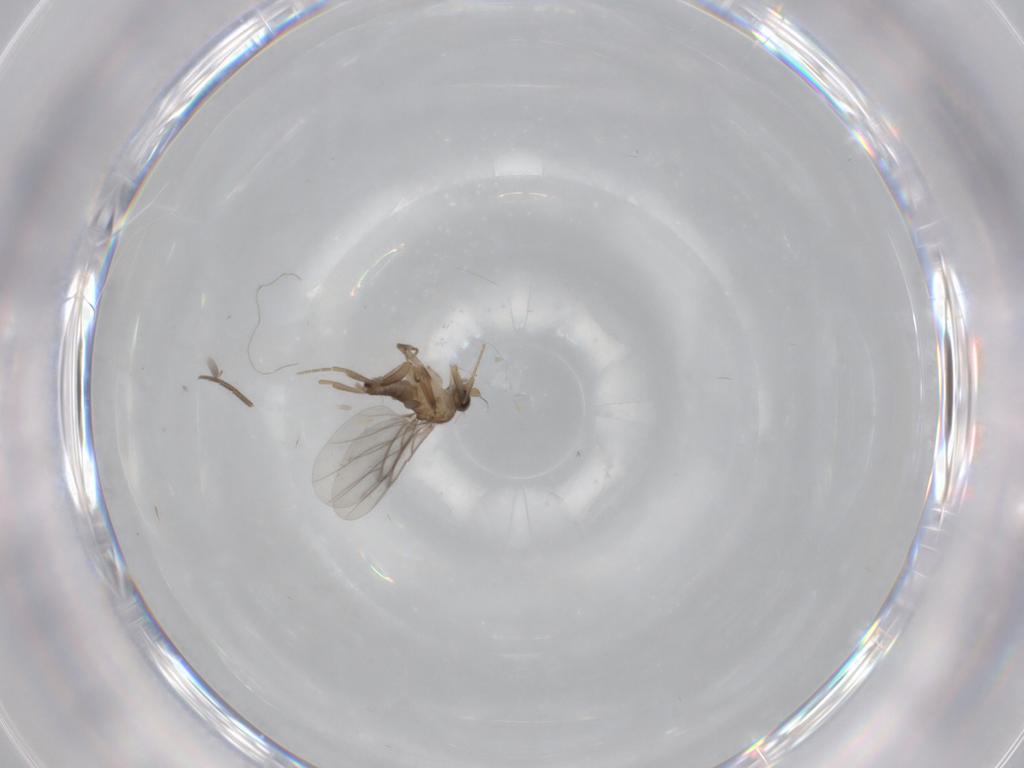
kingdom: Animalia
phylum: Arthropoda
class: Insecta
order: Diptera
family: Mycetophilidae
